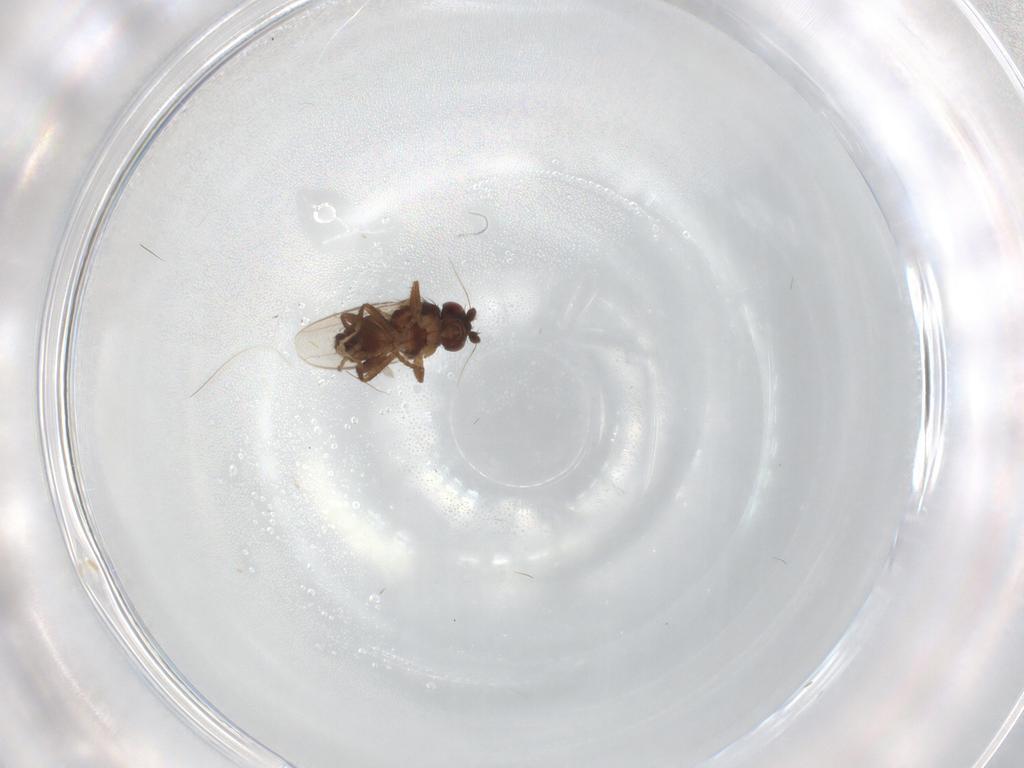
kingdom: Animalia
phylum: Arthropoda
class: Insecta
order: Diptera
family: Sphaeroceridae
